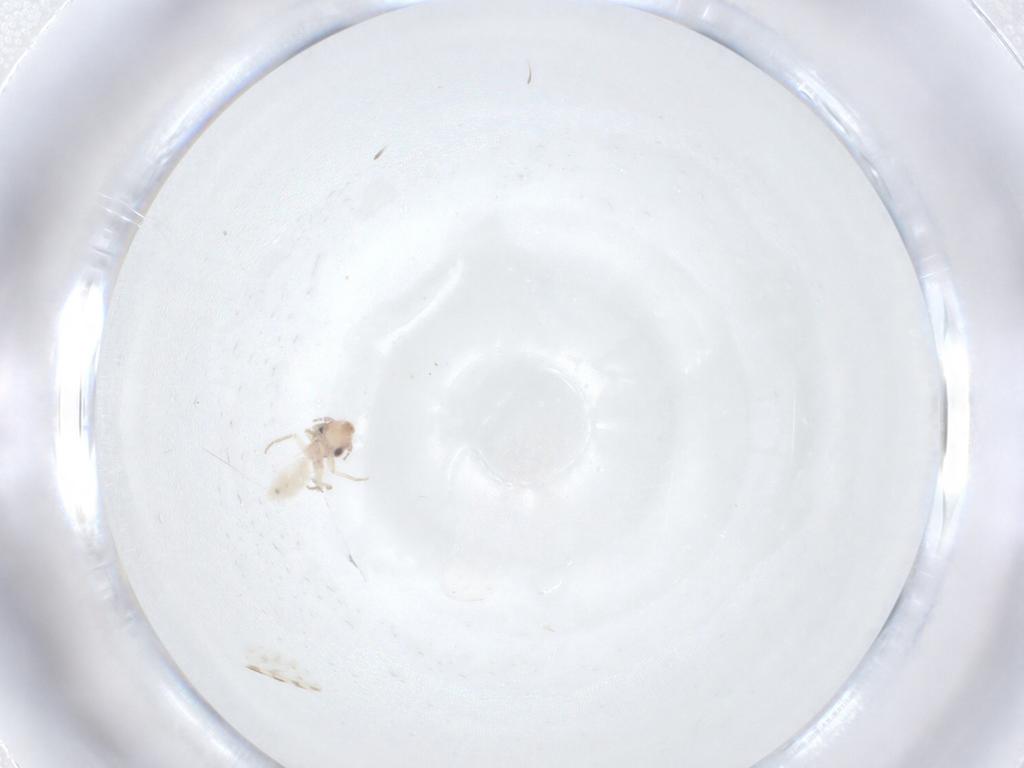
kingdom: Animalia
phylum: Arthropoda
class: Insecta
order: Psocodea
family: Lepidopsocidae
